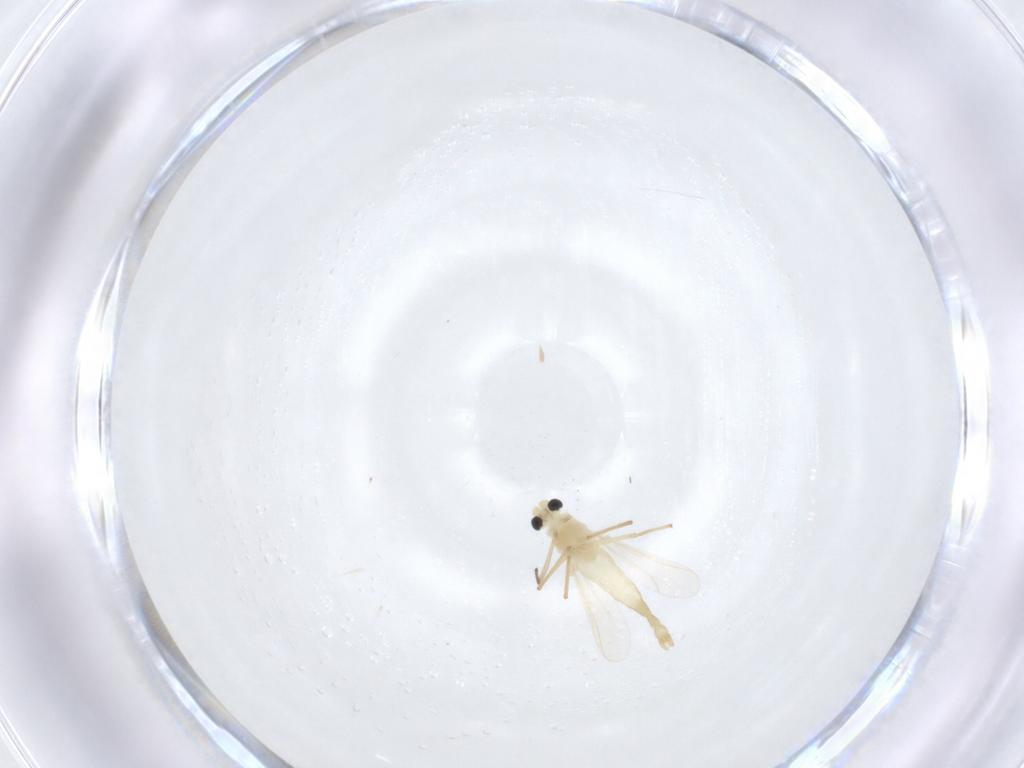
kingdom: Animalia
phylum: Arthropoda
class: Insecta
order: Diptera
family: Chironomidae
